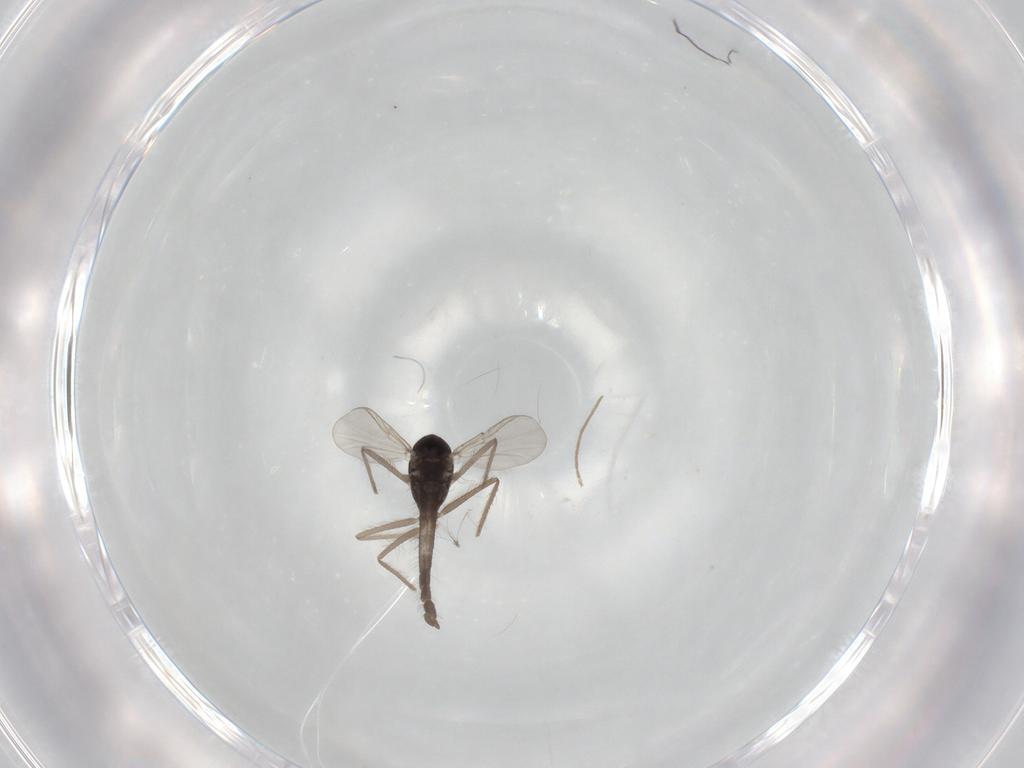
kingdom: Animalia
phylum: Arthropoda
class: Insecta
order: Diptera
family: Chironomidae
